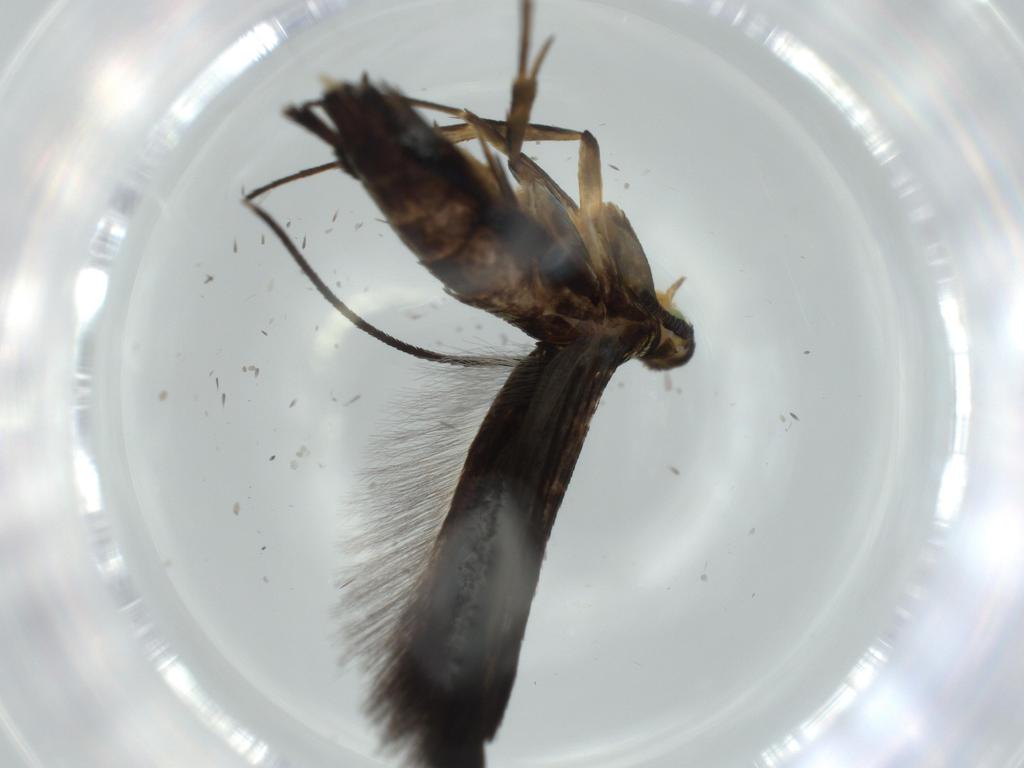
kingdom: Animalia
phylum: Arthropoda
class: Insecta
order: Lepidoptera
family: Heliodinidae
